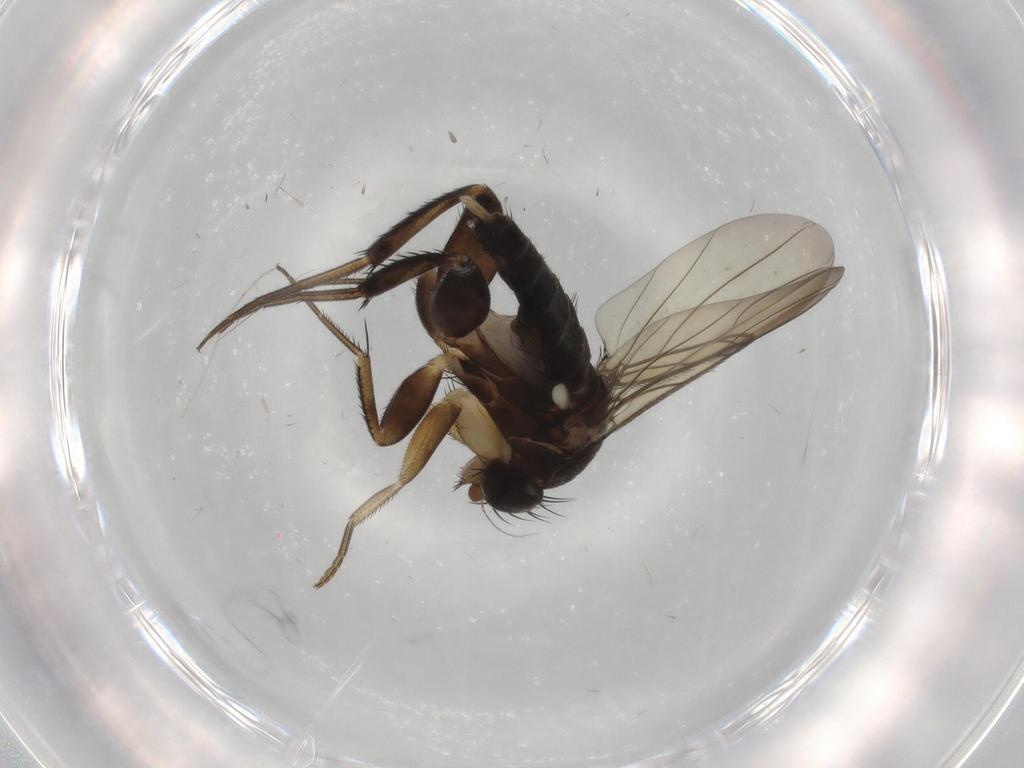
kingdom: Animalia
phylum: Arthropoda
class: Insecta
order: Diptera
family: Phoridae
